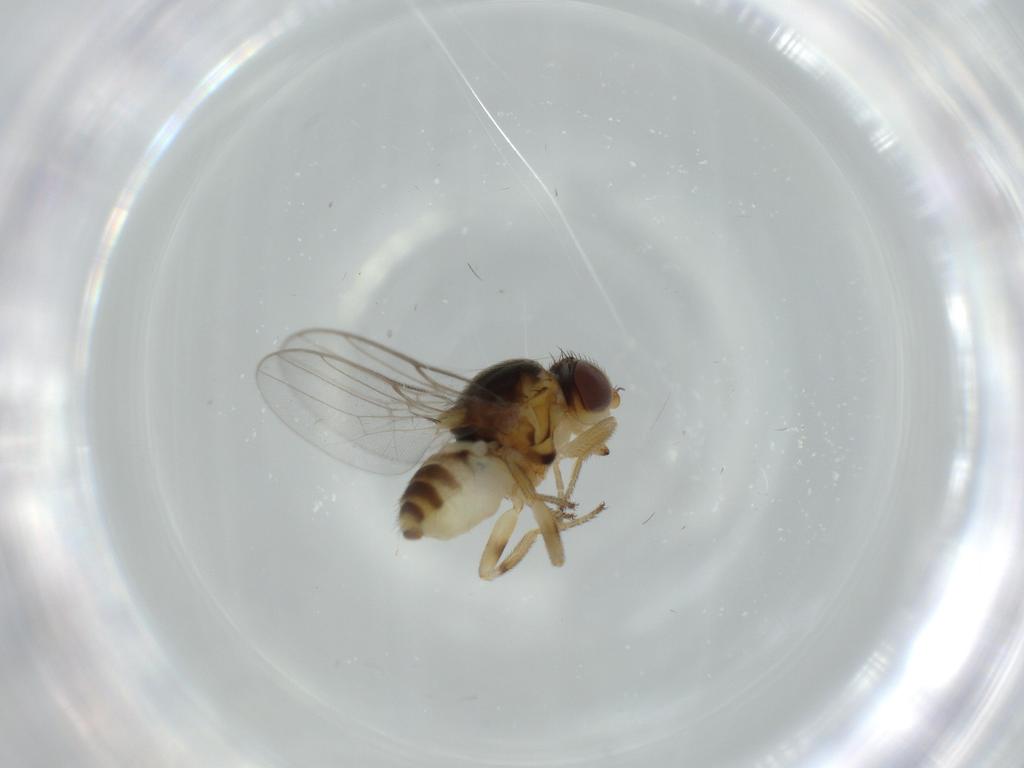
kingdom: Animalia
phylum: Arthropoda
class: Insecta
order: Diptera
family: Chloropidae
